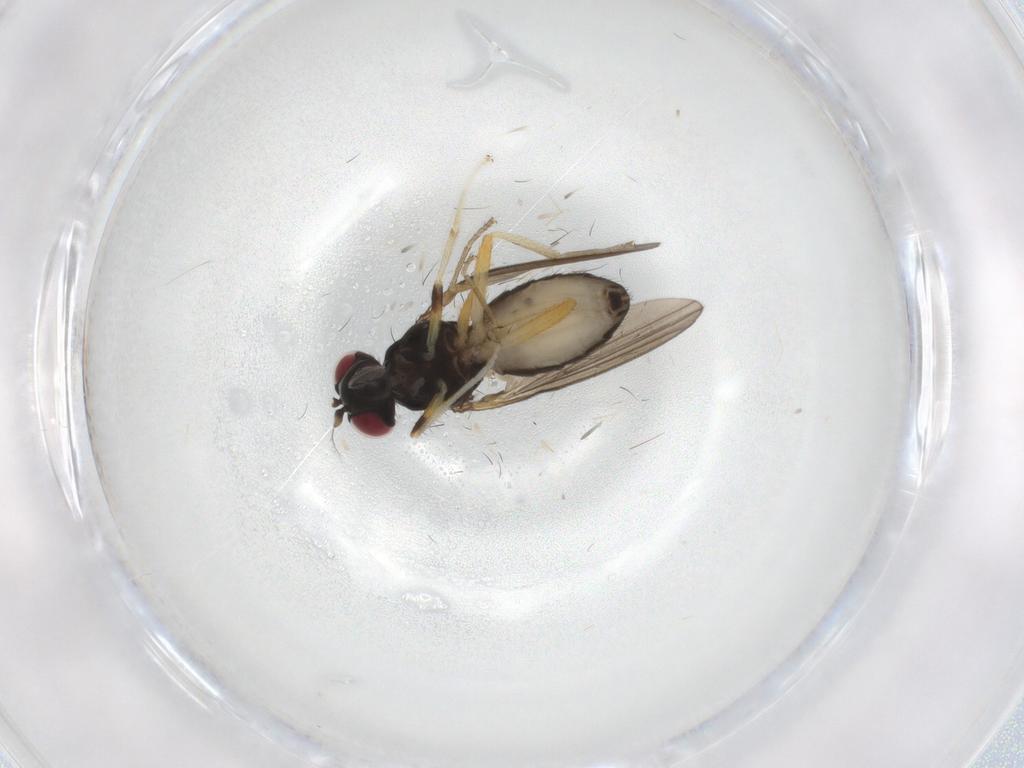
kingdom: Animalia
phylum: Arthropoda
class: Insecta
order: Diptera
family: Lauxaniidae
